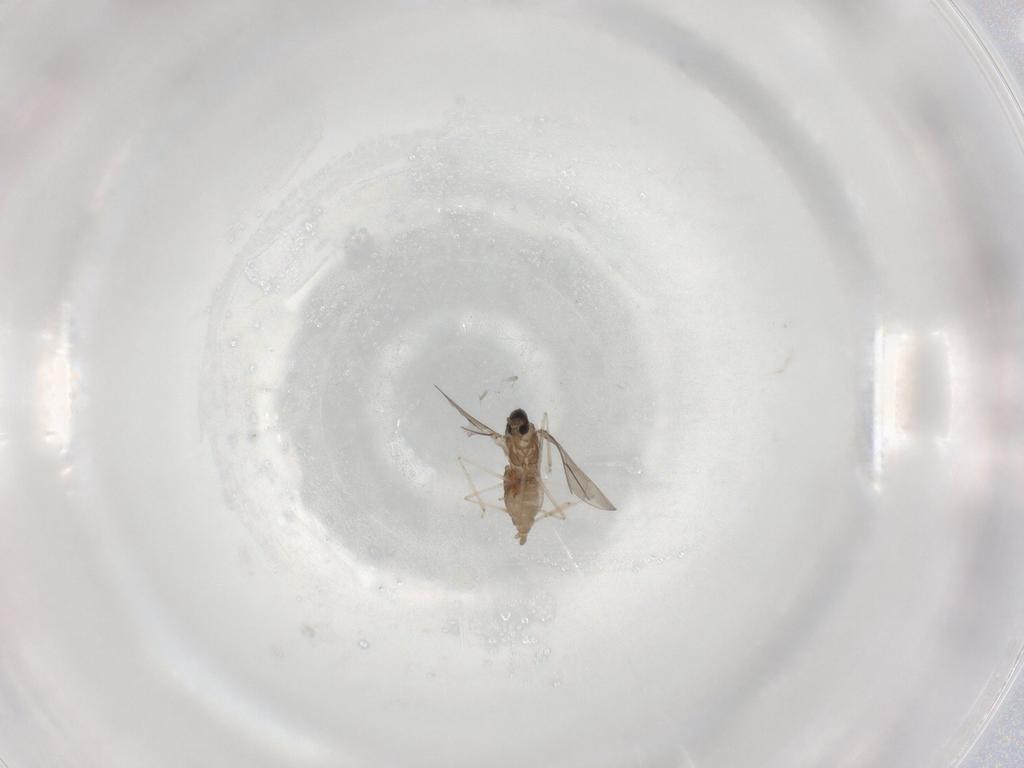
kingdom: Animalia
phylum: Arthropoda
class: Insecta
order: Diptera
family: Cecidomyiidae
